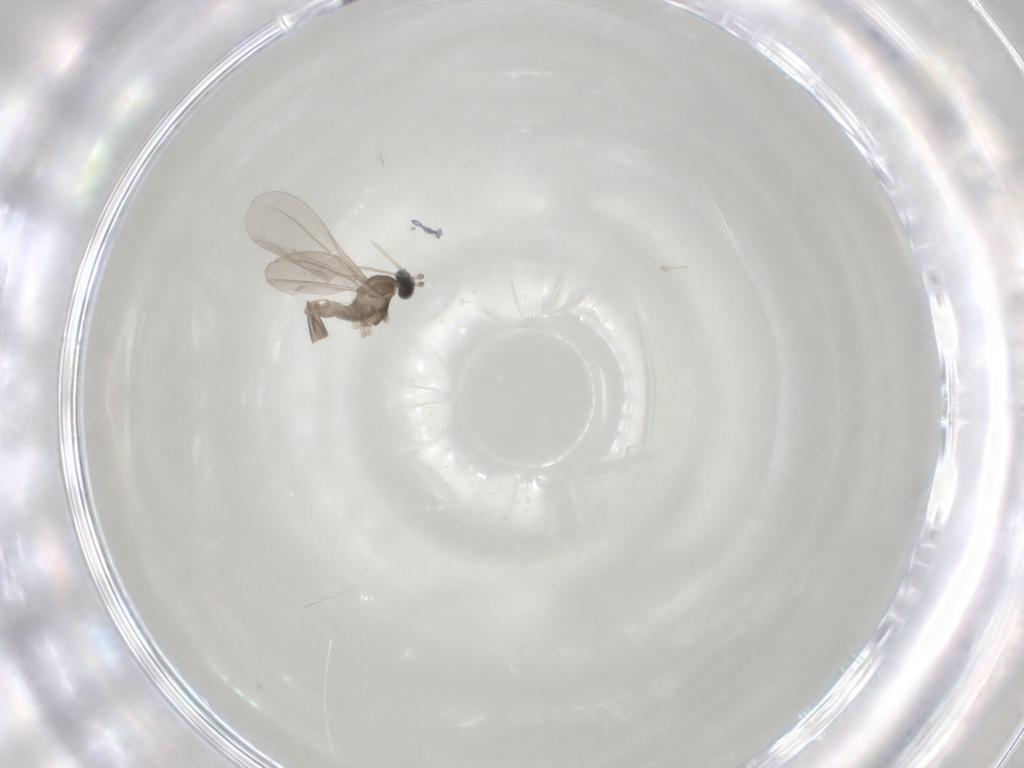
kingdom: Animalia
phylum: Arthropoda
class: Insecta
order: Diptera
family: Cecidomyiidae
